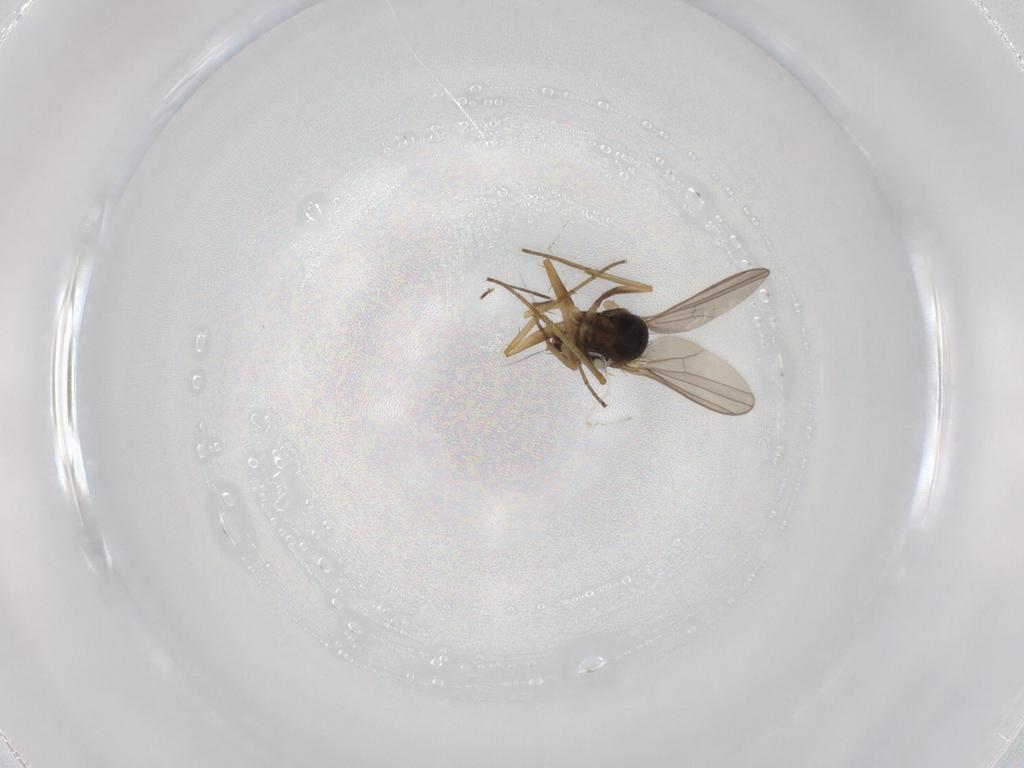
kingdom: Animalia
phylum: Arthropoda
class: Insecta
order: Diptera
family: Dolichopodidae
